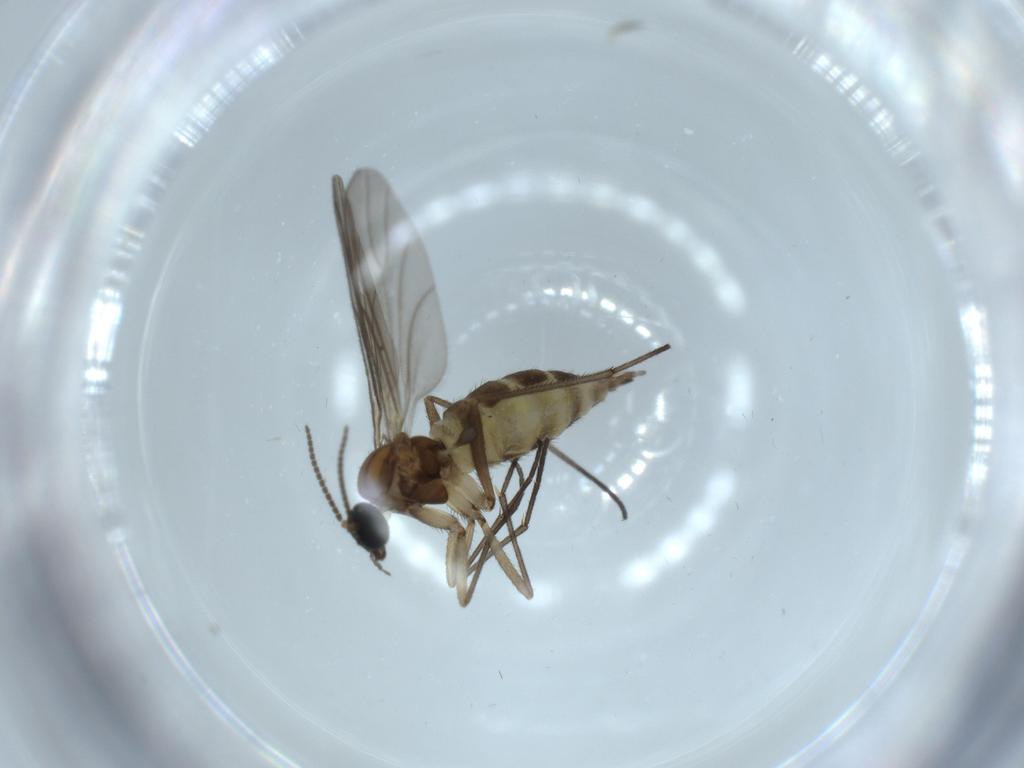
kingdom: Animalia
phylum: Arthropoda
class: Insecta
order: Diptera
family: Sciaridae
